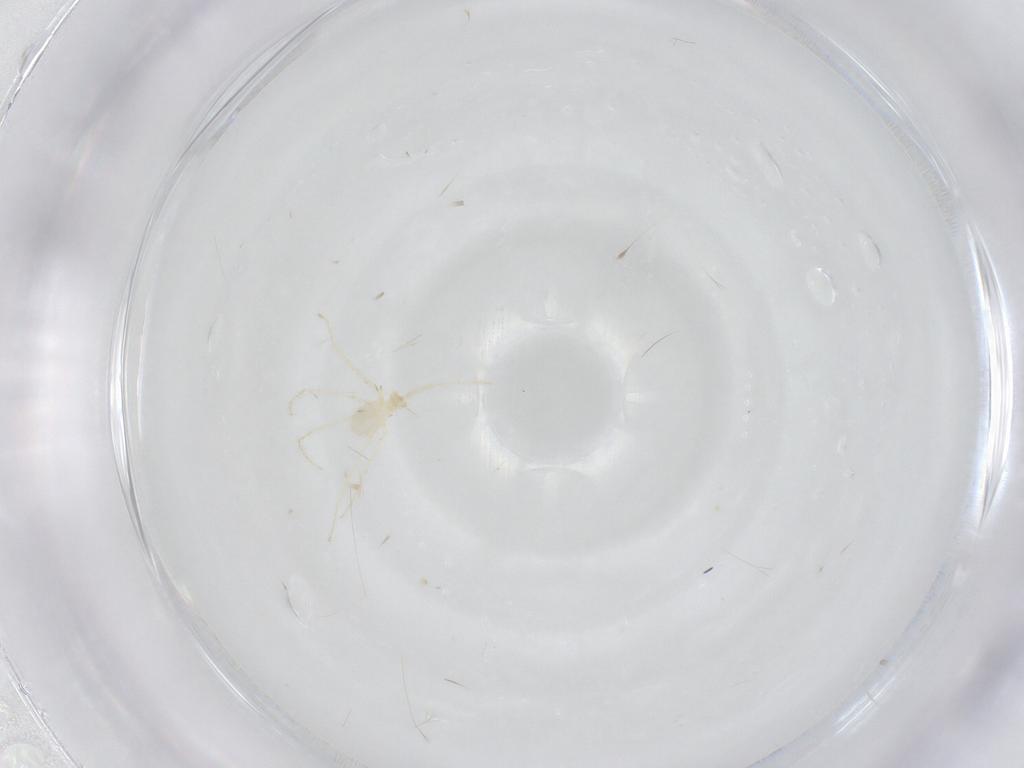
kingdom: Animalia
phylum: Arthropoda
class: Arachnida
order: Trombidiformes
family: Erythraeidae
